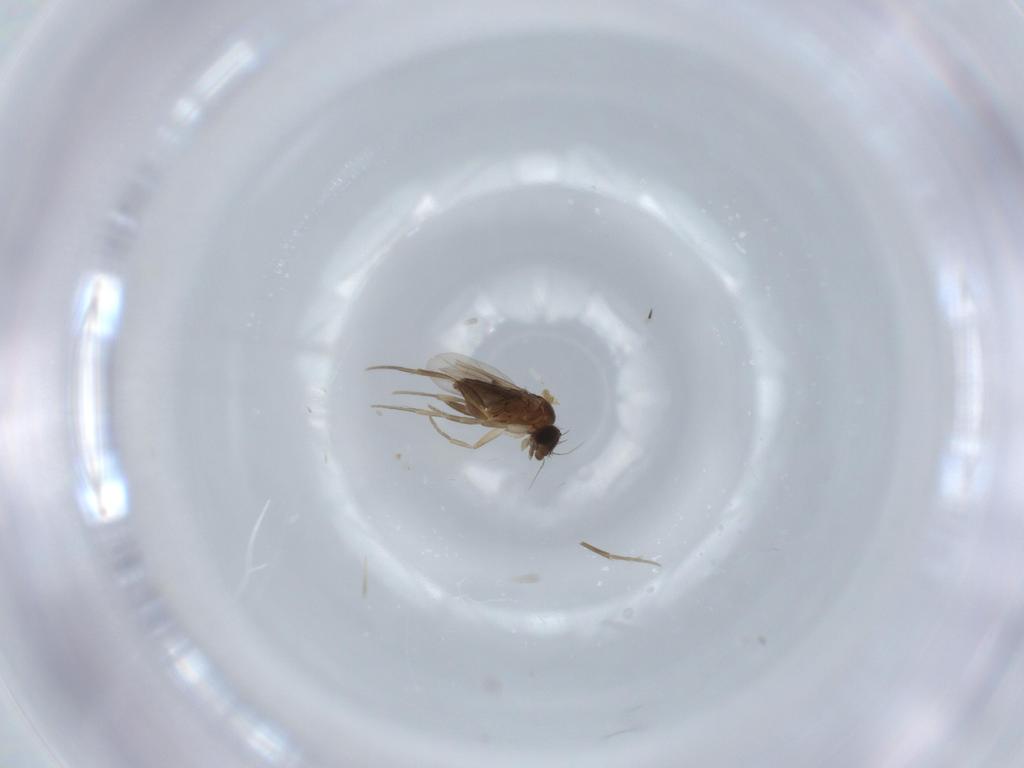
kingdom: Animalia
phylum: Arthropoda
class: Insecta
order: Diptera
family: Phoridae
